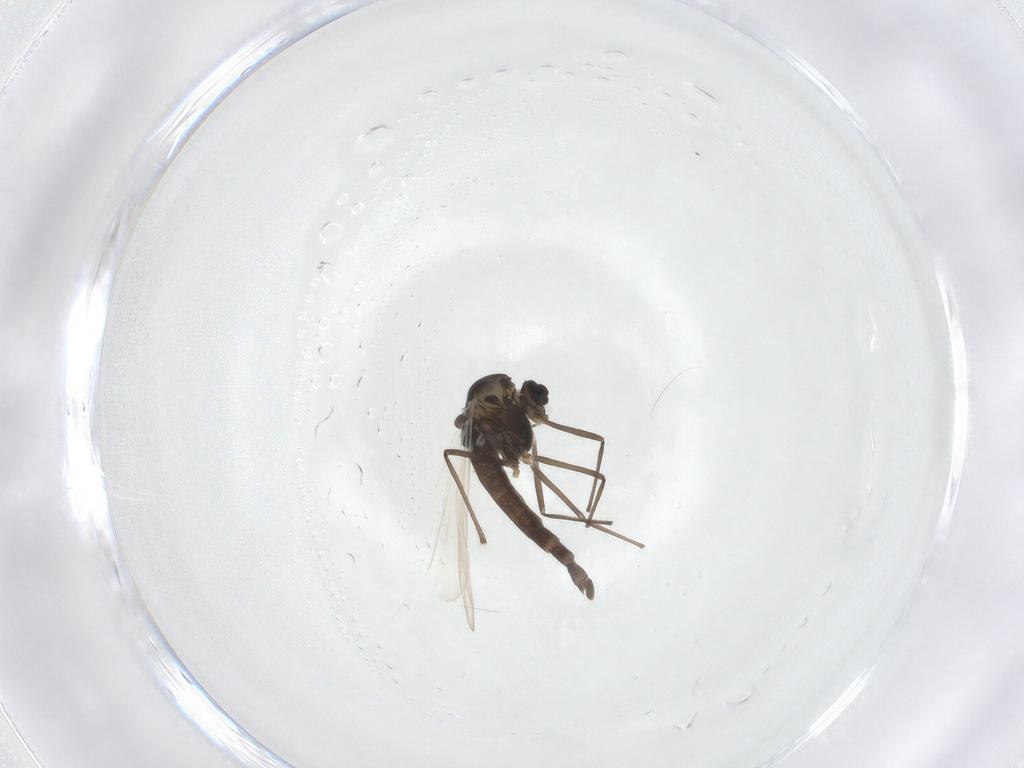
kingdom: Animalia
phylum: Arthropoda
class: Insecta
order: Diptera
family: Chironomidae
